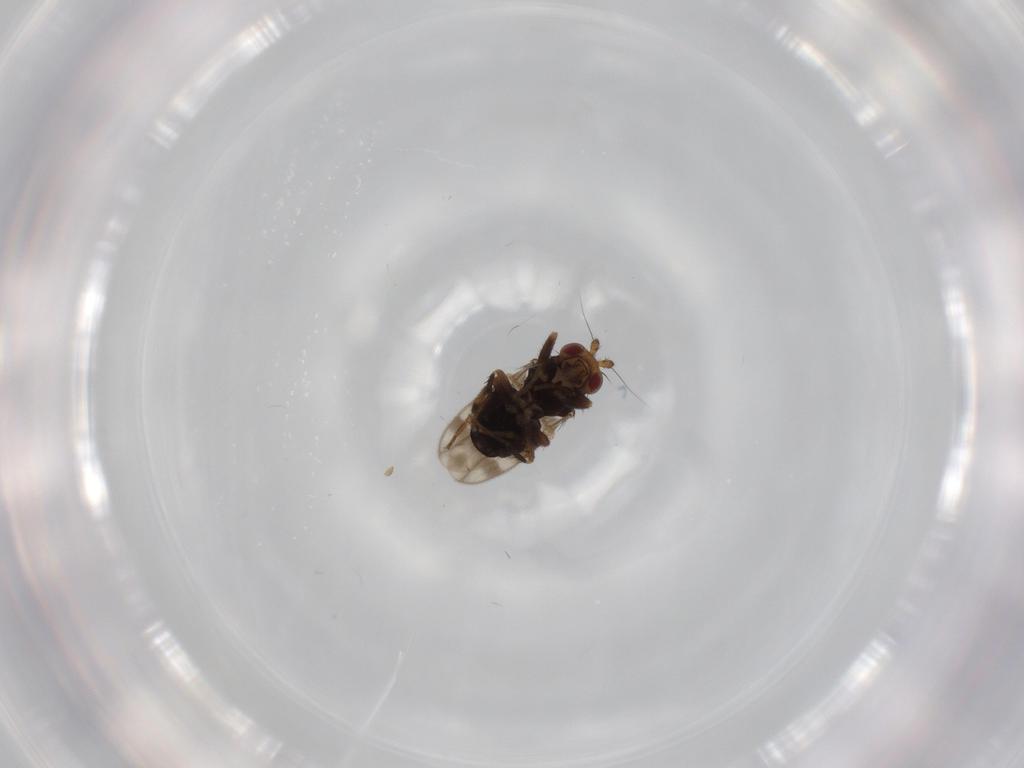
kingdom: Animalia
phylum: Arthropoda
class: Insecta
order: Diptera
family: Sphaeroceridae
